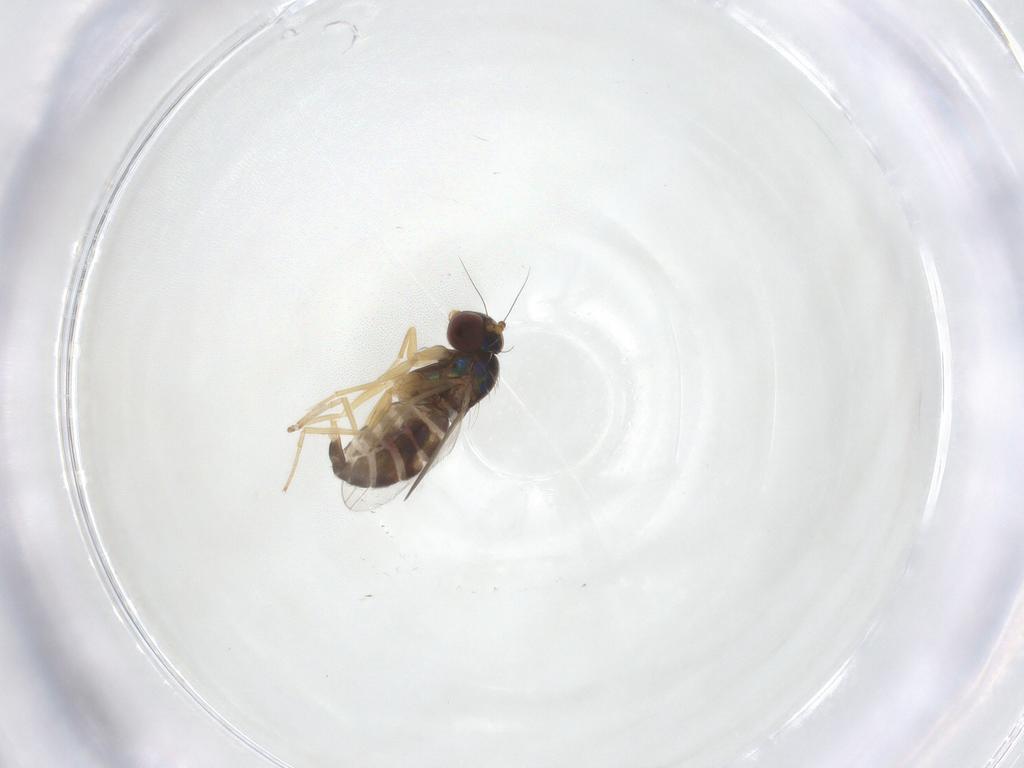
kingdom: Animalia
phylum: Arthropoda
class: Insecta
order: Diptera
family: Dolichopodidae
